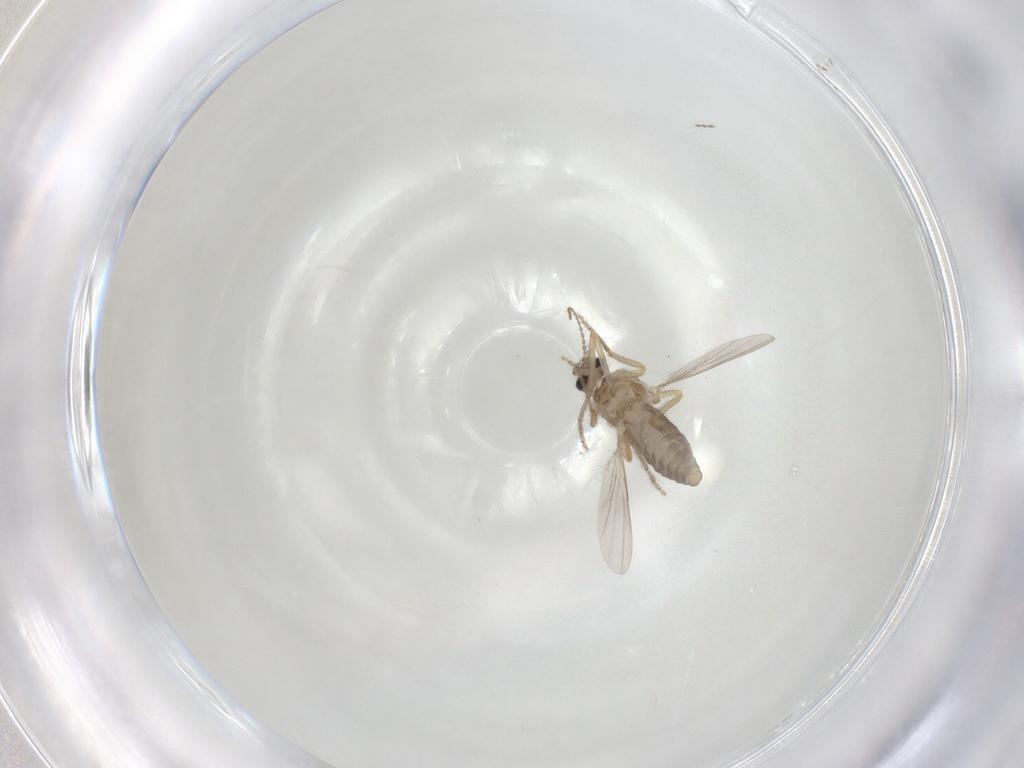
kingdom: Animalia
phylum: Arthropoda
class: Insecta
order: Diptera
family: Ceratopogonidae
